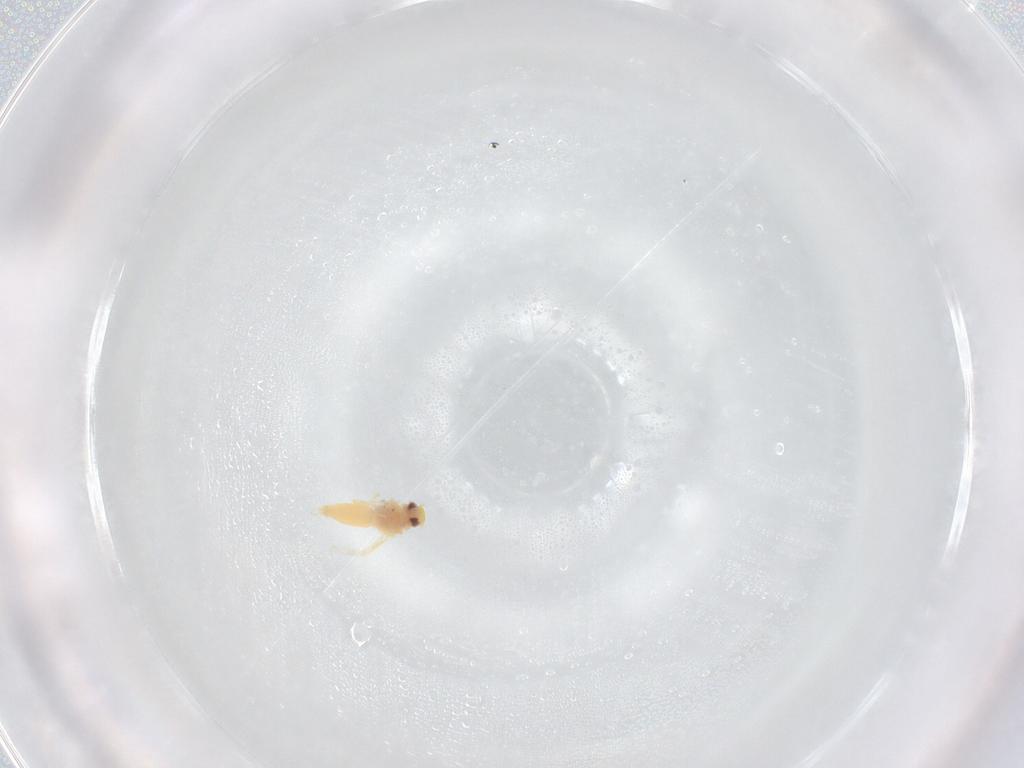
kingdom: Animalia
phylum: Arthropoda
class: Insecta
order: Hemiptera
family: Aleyrodidae
